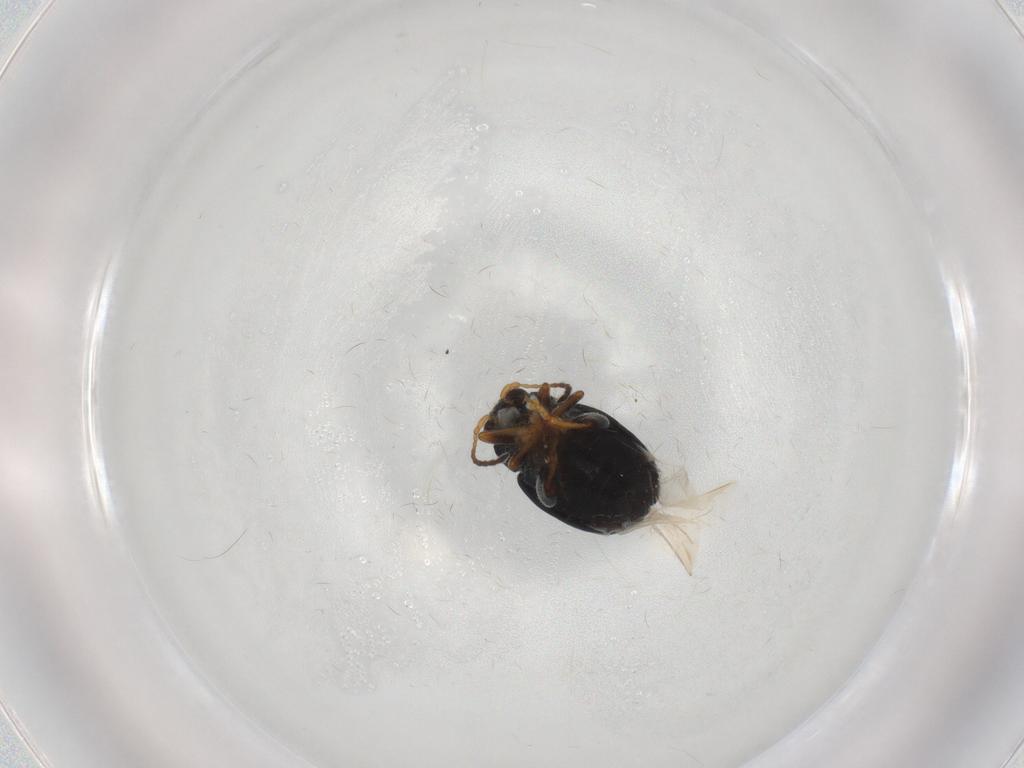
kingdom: Animalia
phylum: Arthropoda
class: Insecta
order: Coleoptera
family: Chrysomelidae
